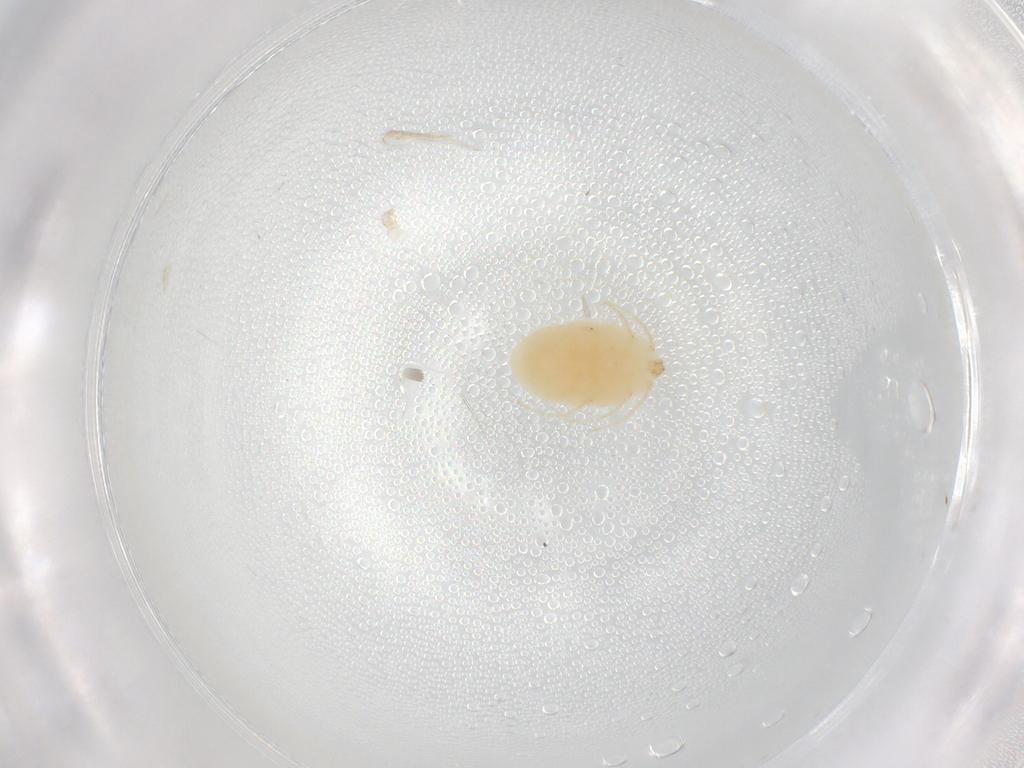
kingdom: Animalia
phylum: Arthropoda
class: Arachnida
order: Trombidiformes
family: Erythraeidae
